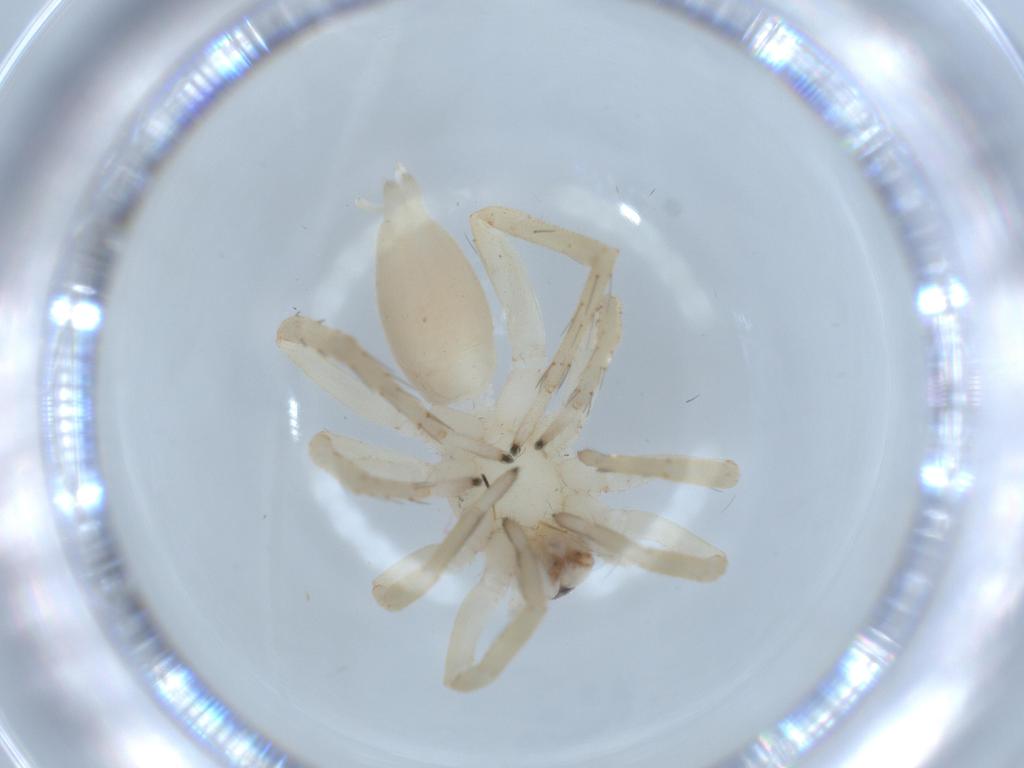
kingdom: Animalia
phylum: Arthropoda
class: Arachnida
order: Araneae
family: Clubionidae
